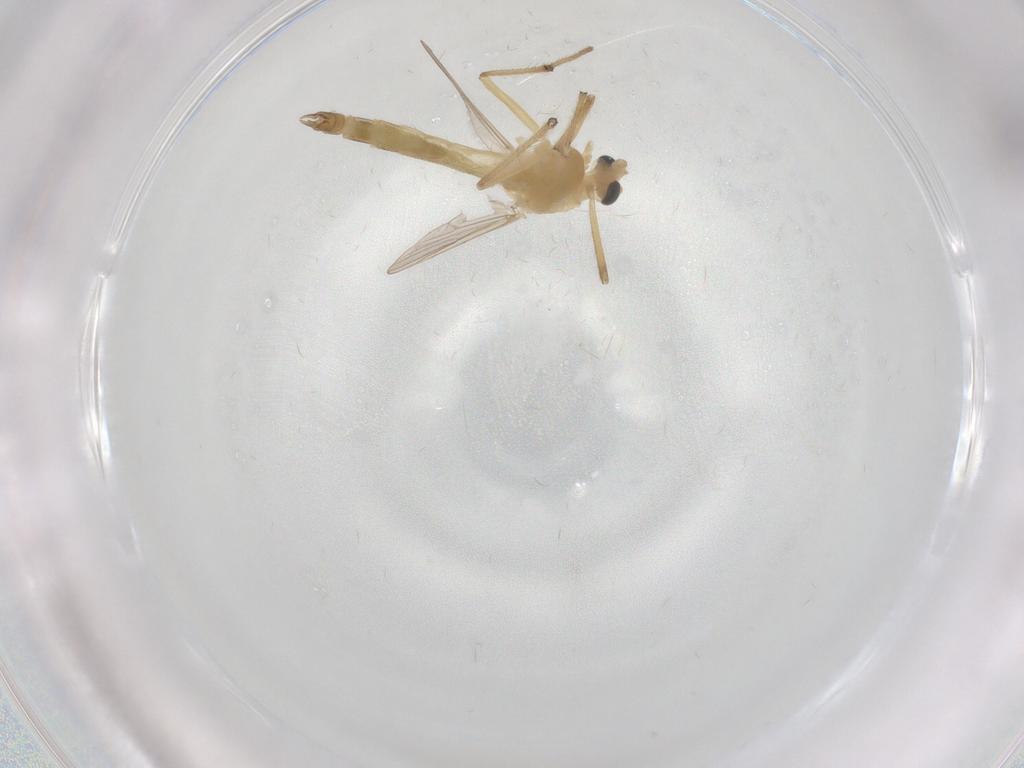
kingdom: Animalia
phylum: Arthropoda
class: Insecta
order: Diptera
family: Chironomidae
